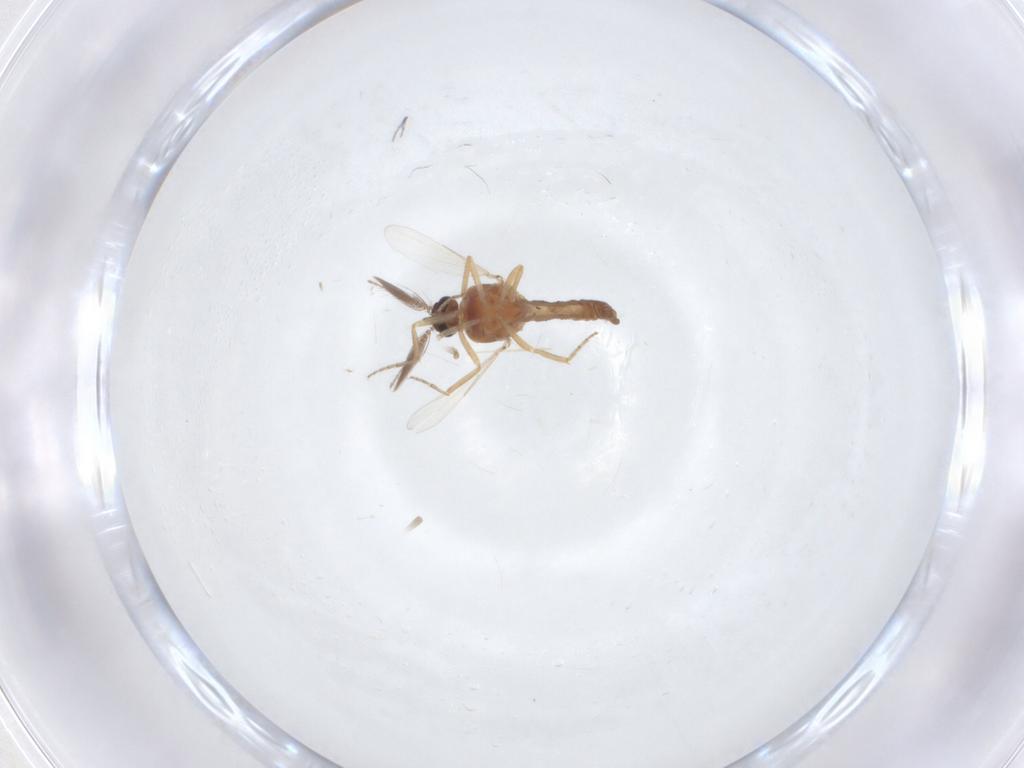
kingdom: Animalia
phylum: Arthropoda
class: Insecta
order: Diptera
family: Ceratopogonidae
